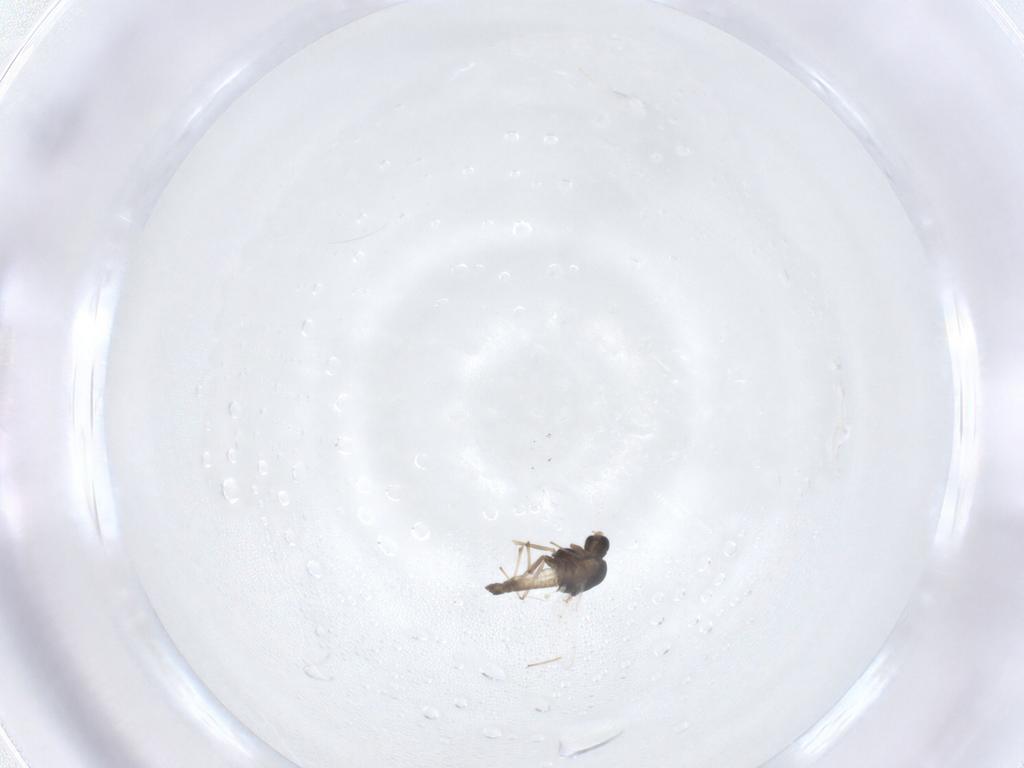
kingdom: Animalia
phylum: Arthropoda
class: Insecta
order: Diptera
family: Chironomidae
